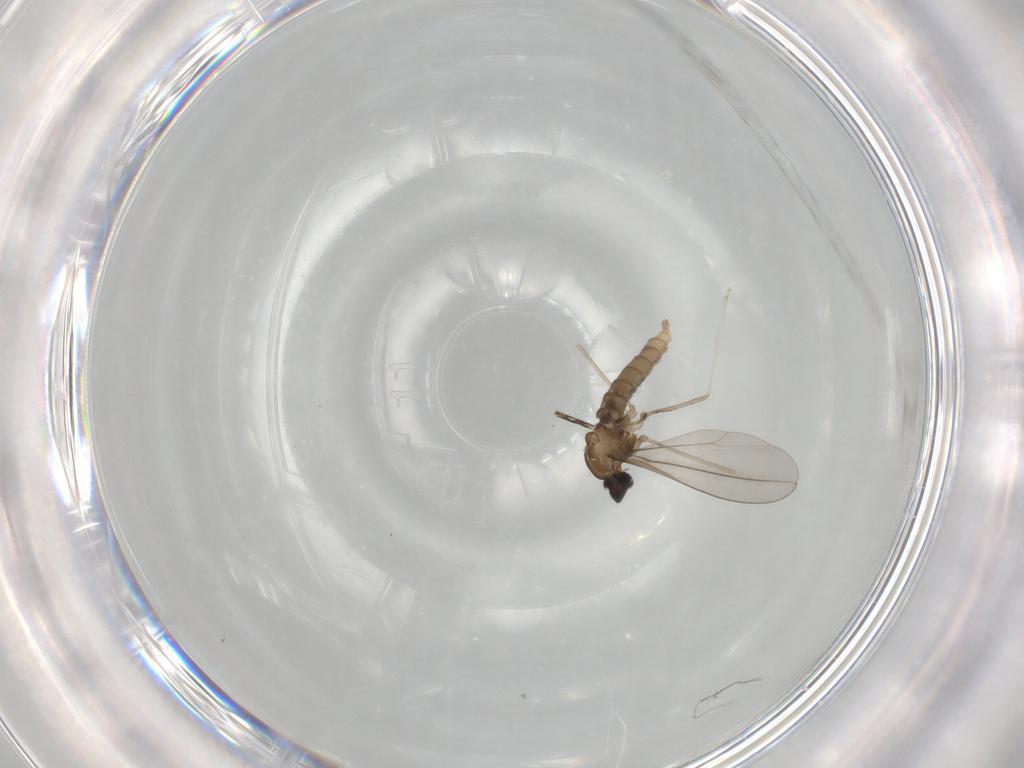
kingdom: Animalia
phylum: Arthropoda
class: Insecta
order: Diptera
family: Cecidomyiidae
